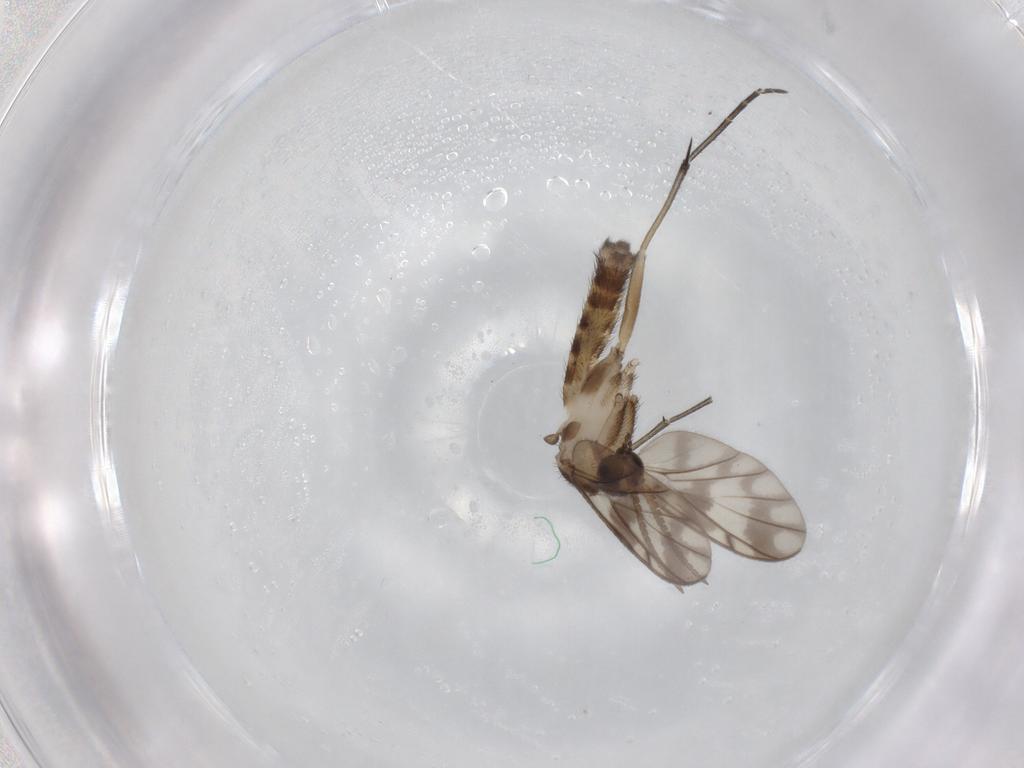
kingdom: Animalia
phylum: Arthropoda
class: Insecta
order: Diptera
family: Keroplatidae
